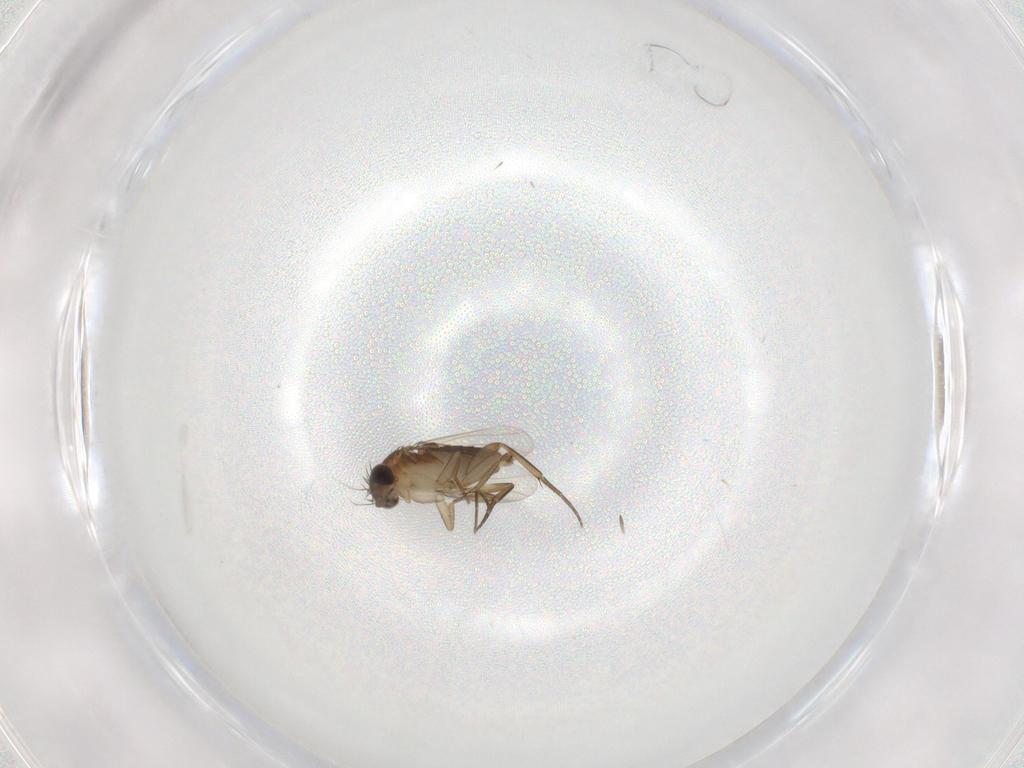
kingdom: Animalia
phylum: Arthropoda
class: Insecta
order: Diptera
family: Phoridae
